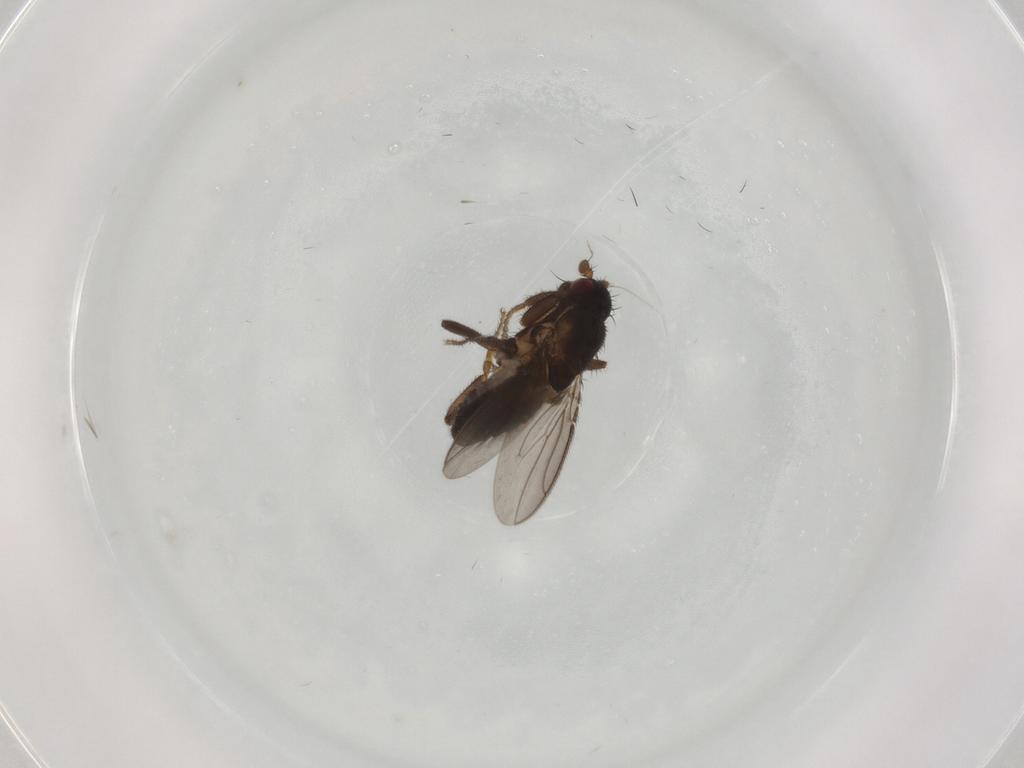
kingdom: Animalia
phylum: Arthropoda
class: Insecta
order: Diptera
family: Sphaeroceridae
